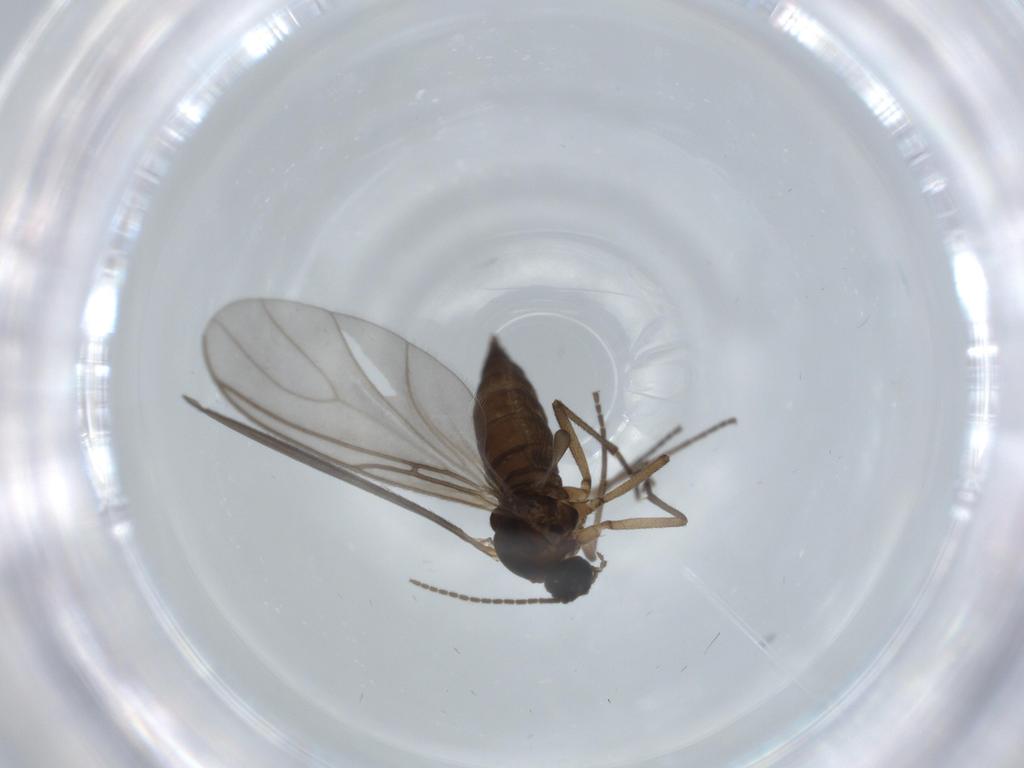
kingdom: Animalia
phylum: Arthropoda
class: Insecta
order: Diptera
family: Sciaridae
